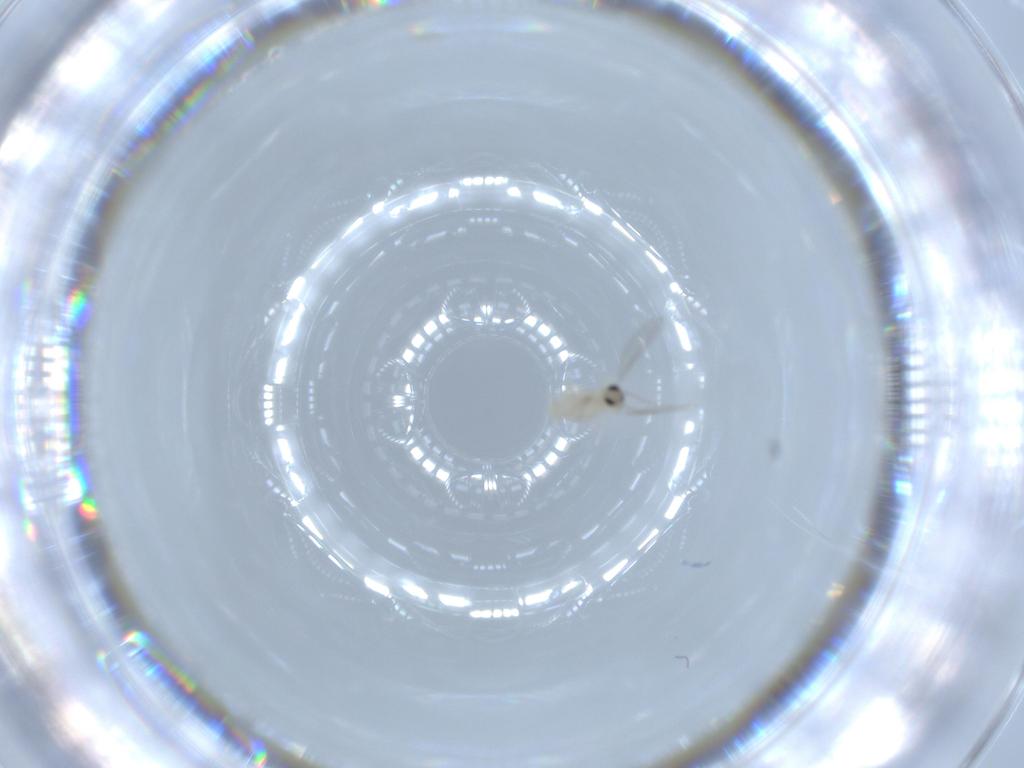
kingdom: Animalia
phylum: Arthropoda
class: Insecta
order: Diptera
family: Cecidomyiidae
